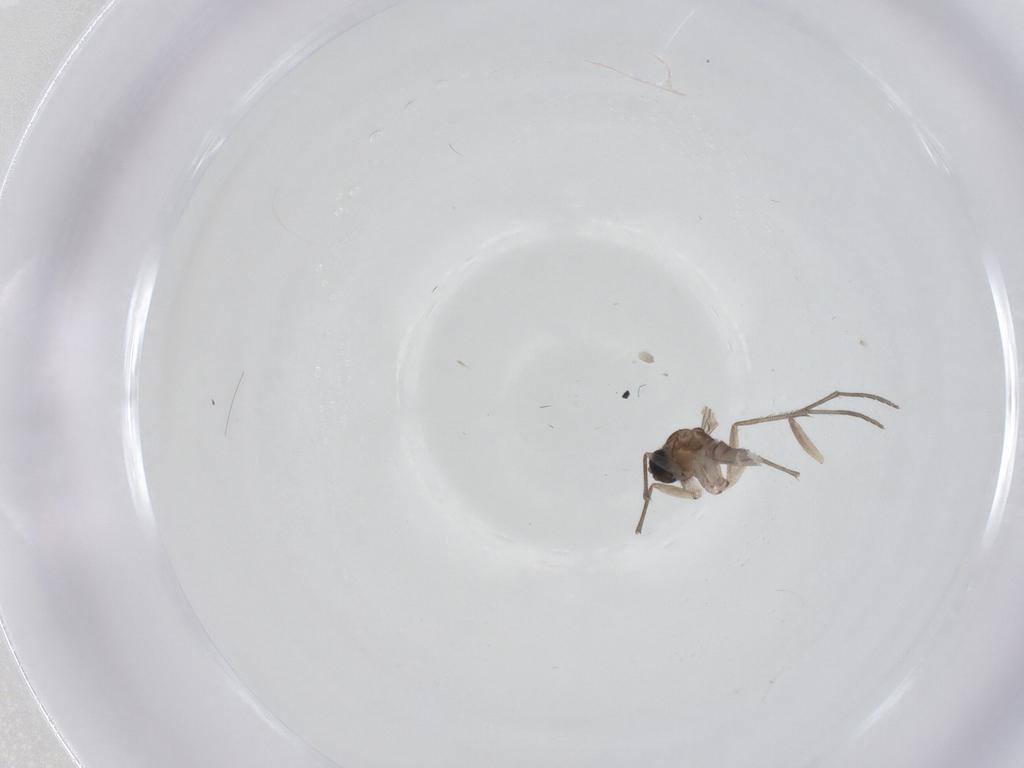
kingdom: Animalia
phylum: Arthropoda
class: Insecta
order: Diptera
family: Sciaridae
